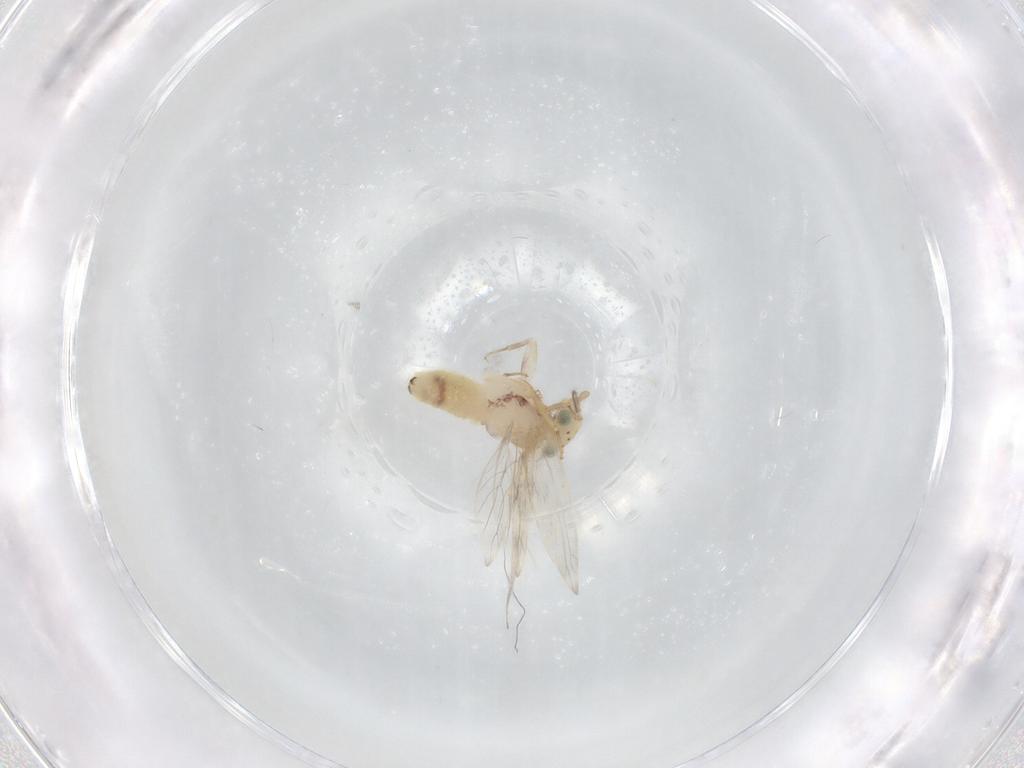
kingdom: Animalia
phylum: Arthropoda
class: Insecta
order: Psocodea
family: Lepidopsocidae
